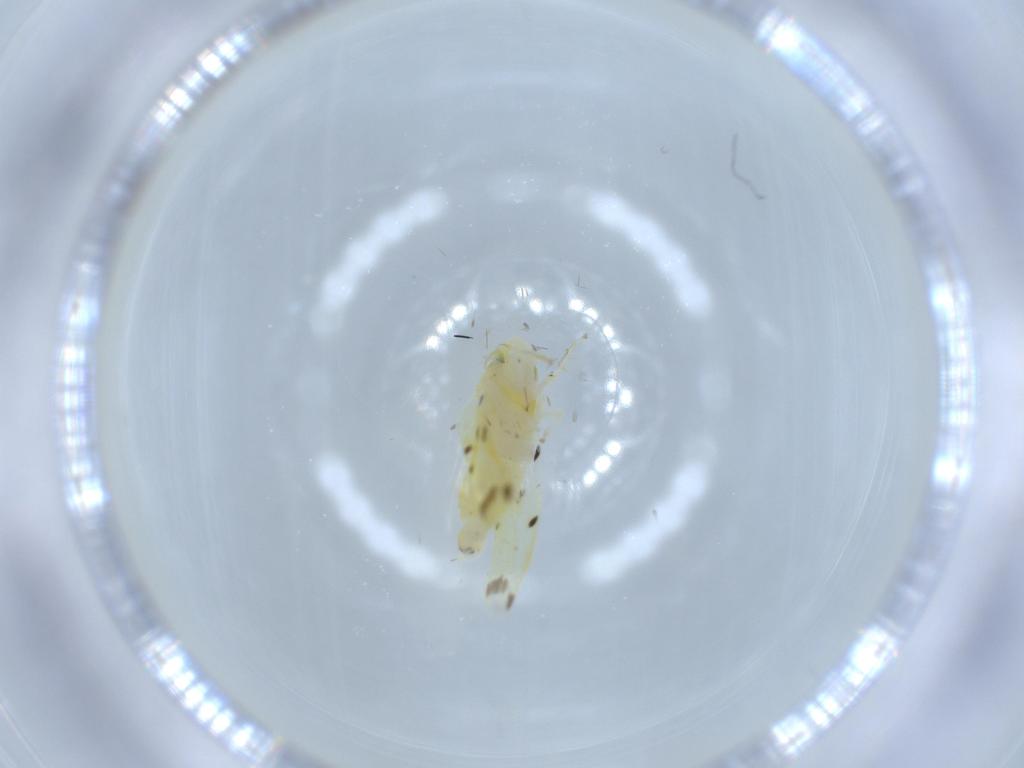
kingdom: Animalia
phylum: Arthropoda
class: Insecta
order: Hemiptera
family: Cicadellidae
